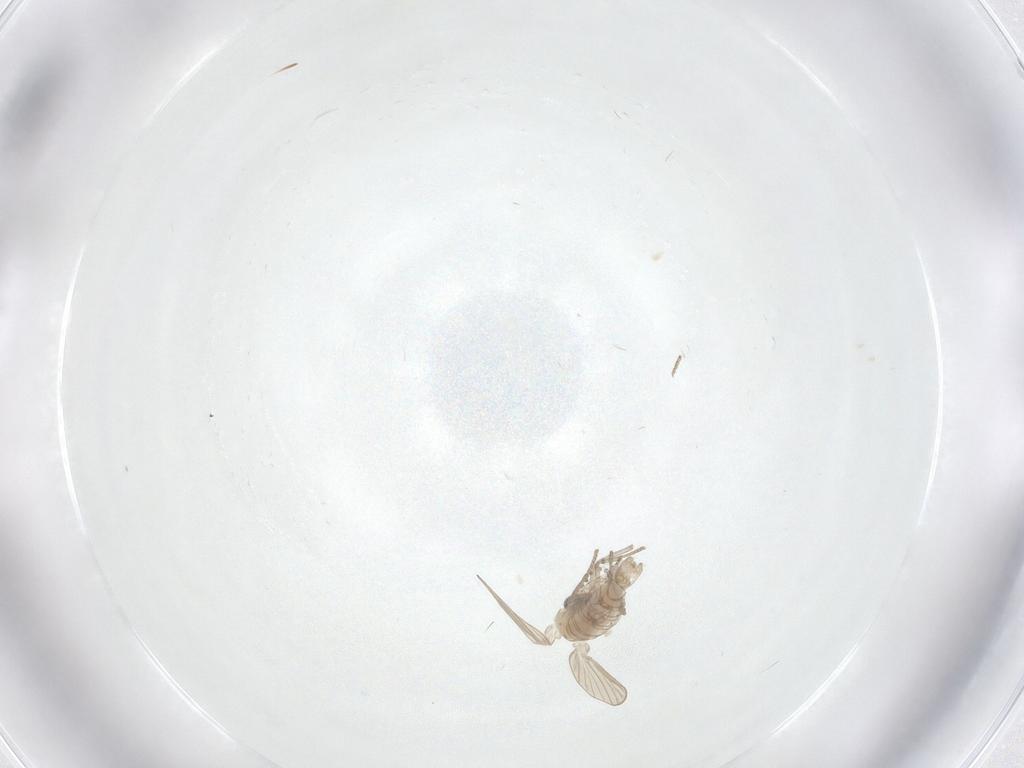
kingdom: Animalia
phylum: Arthropoda
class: Insecta
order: Diptera
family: Psychodidae
